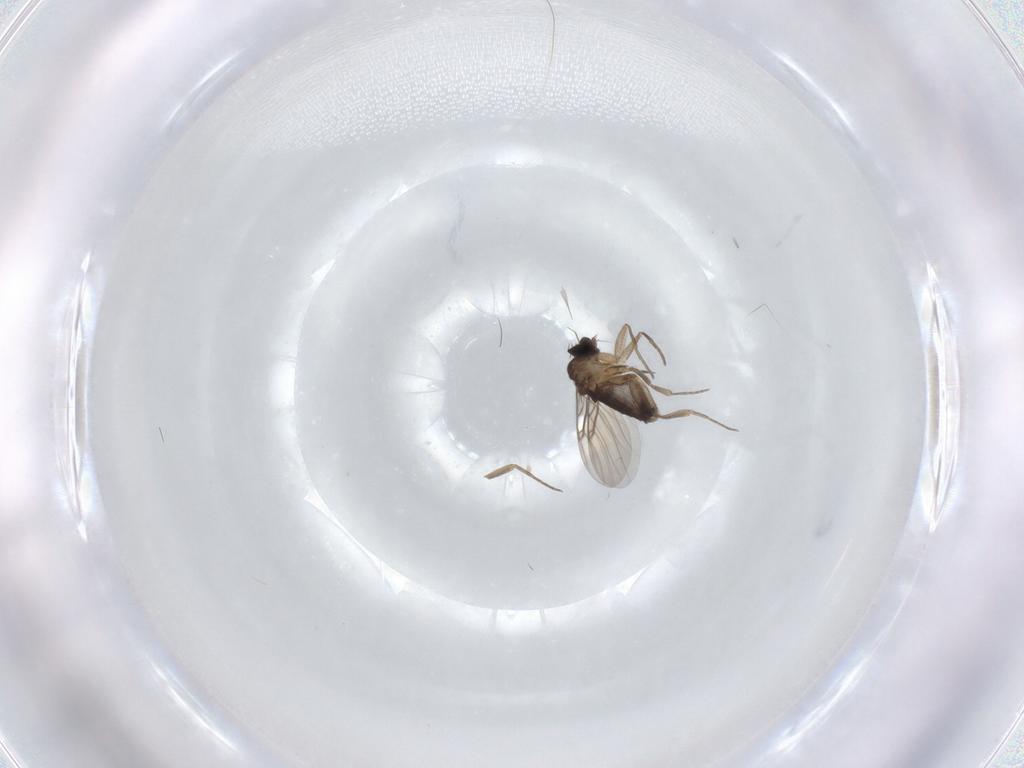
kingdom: Animalia
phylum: Arthropoda
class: Insecta
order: Diptera
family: Phoridae
